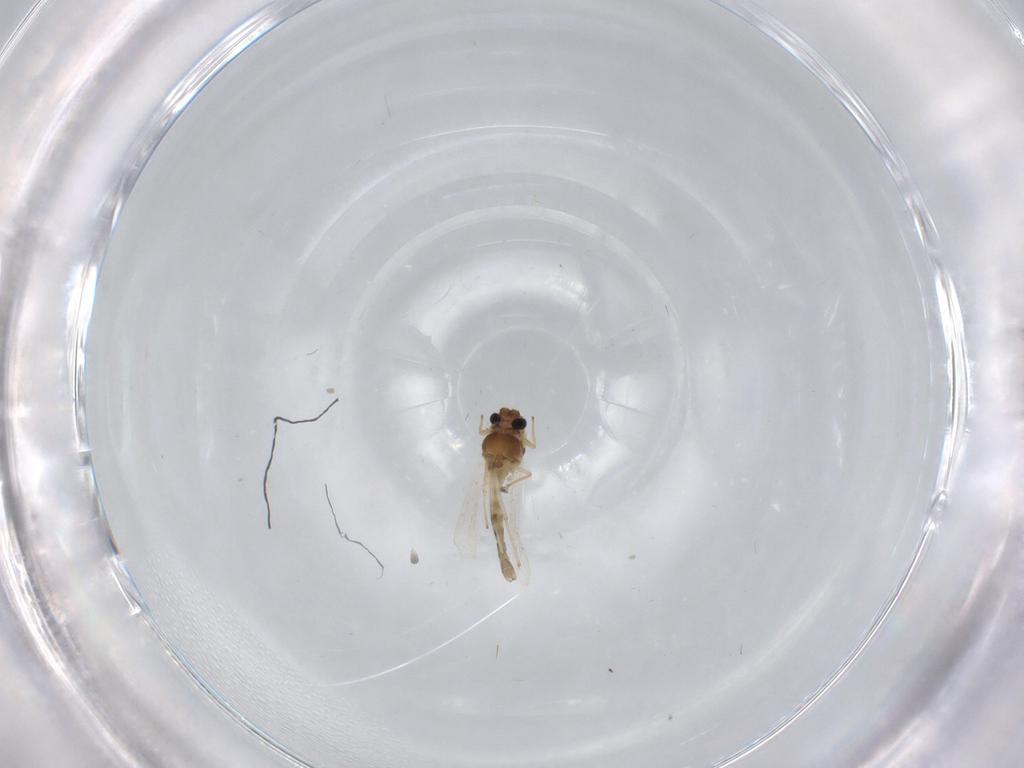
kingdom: Animalia
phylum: Arthropoda
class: Insecta
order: Diptera
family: Chironomidae
